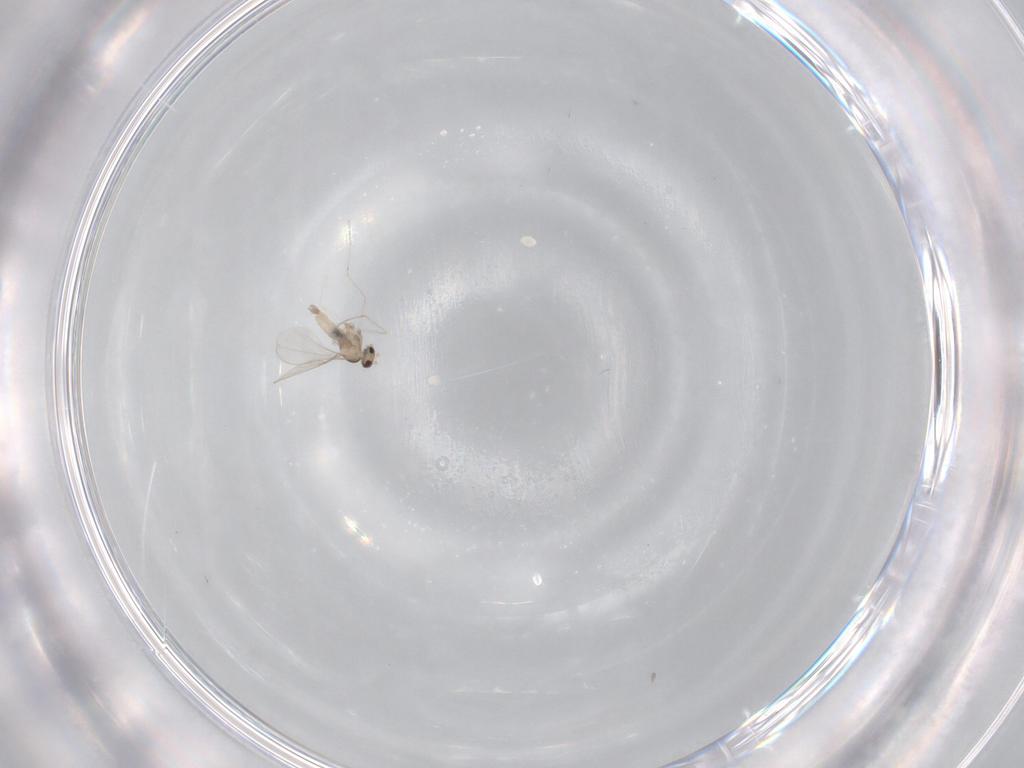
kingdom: Animalia
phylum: Arthropoda
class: Insecta
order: Diptera
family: Cecidomyiidae
